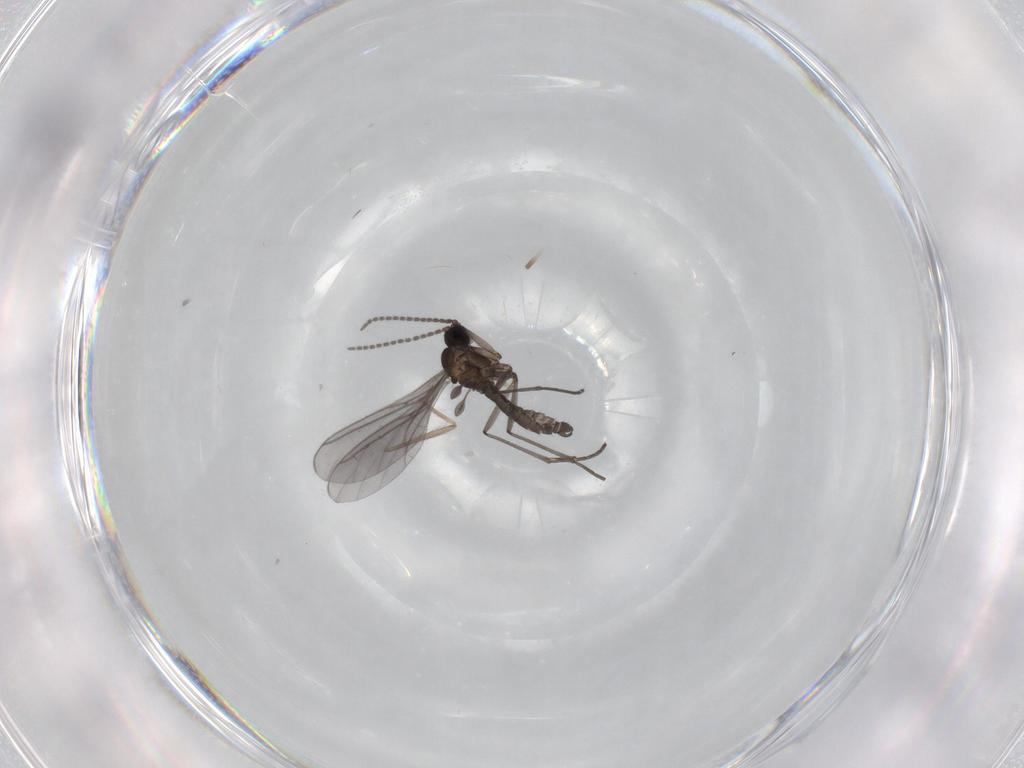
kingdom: Animalia
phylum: Arthropoda
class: Insecta
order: Diptera
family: Sciaridae
